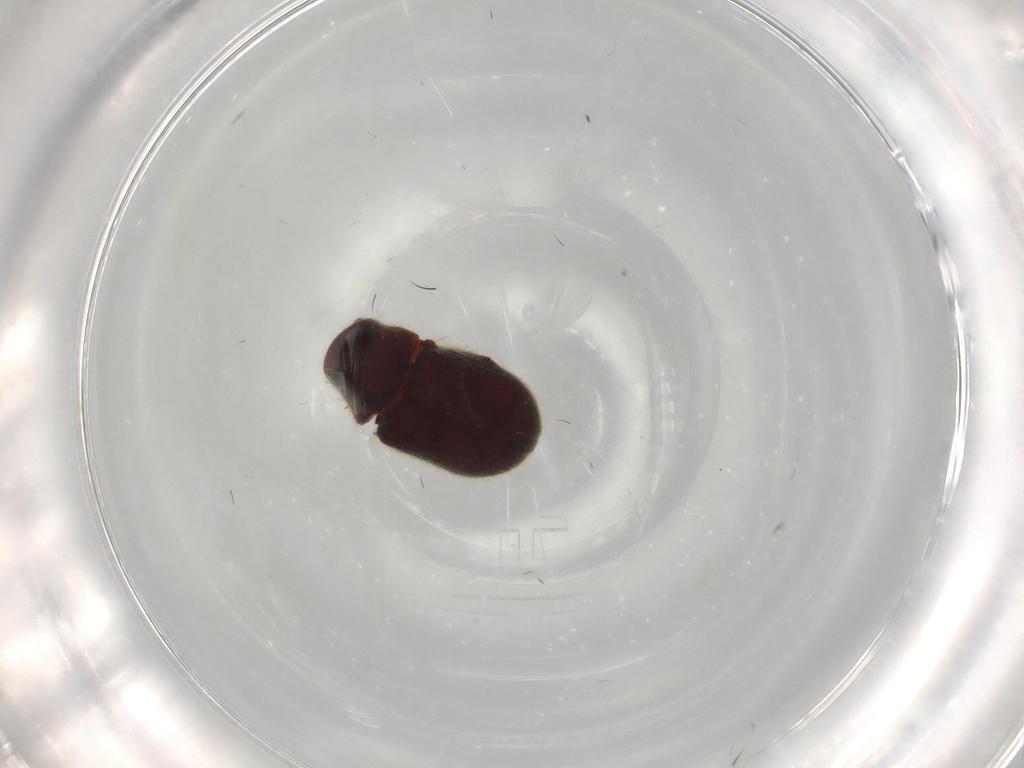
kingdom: Animalia
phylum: Arthropoda
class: Insecta
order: Coleoptera
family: Ptinidae
